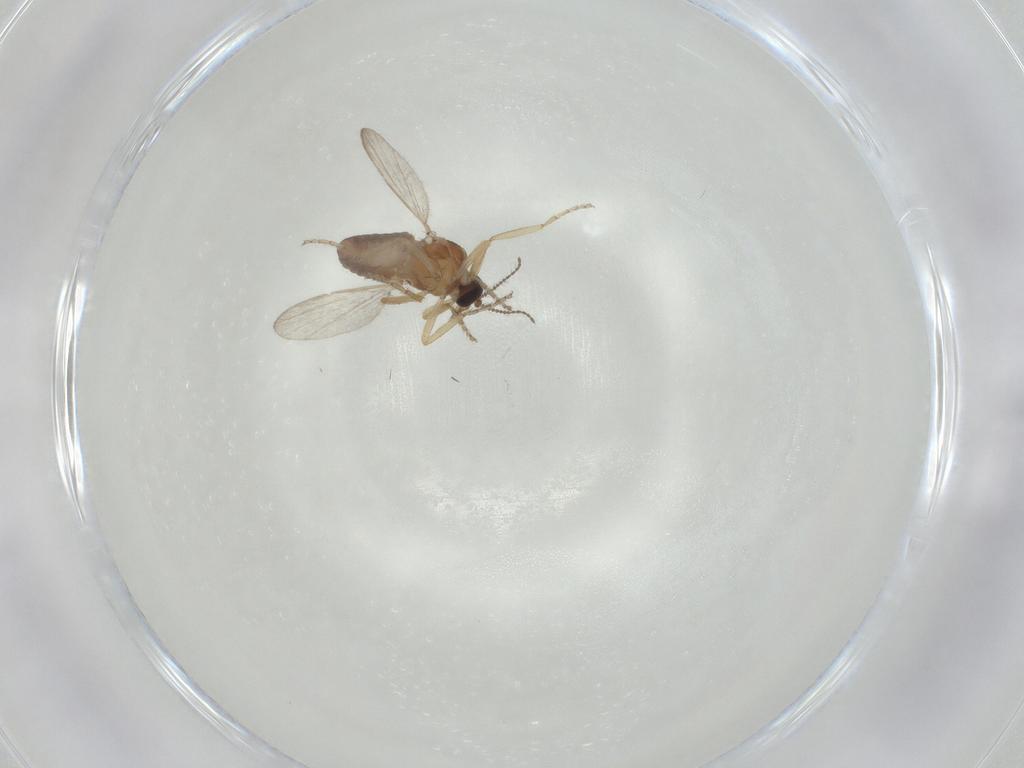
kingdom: Animalia
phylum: Arthropoda
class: Insecta
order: Diptera
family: Ceratopogonidae
